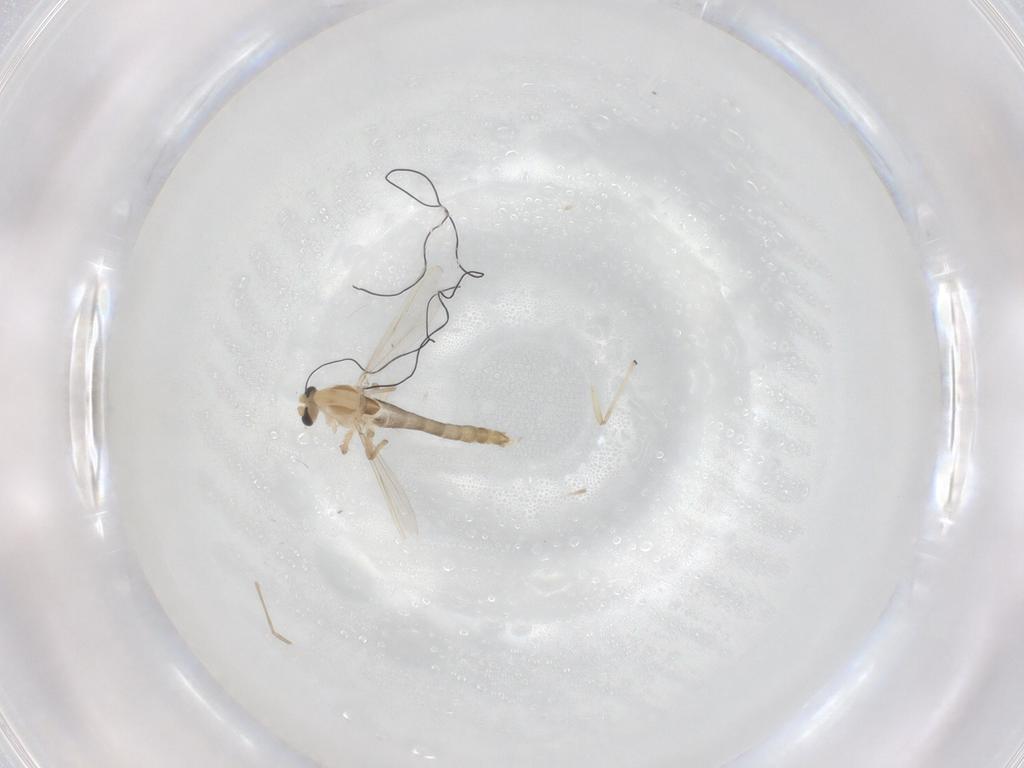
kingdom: Animalia
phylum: Arthropoda
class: Insecta
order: Diptera
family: Chironomidae
